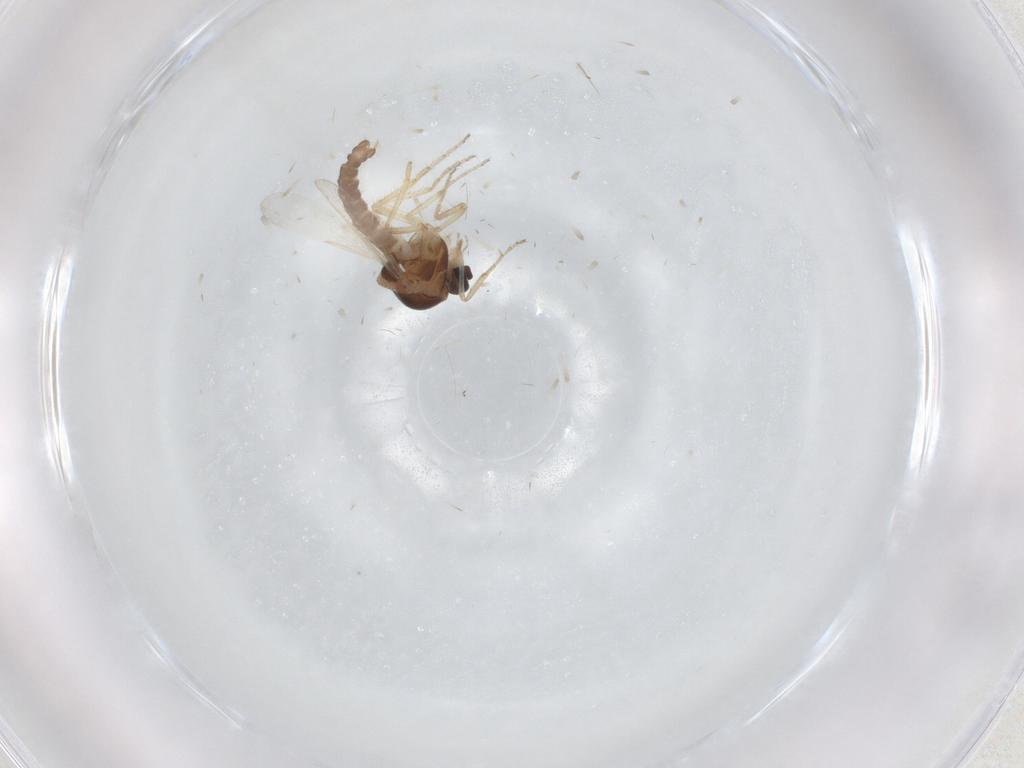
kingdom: Animalia
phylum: Arthropoda
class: Insecta
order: Diptera
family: Ceratopogonidae
